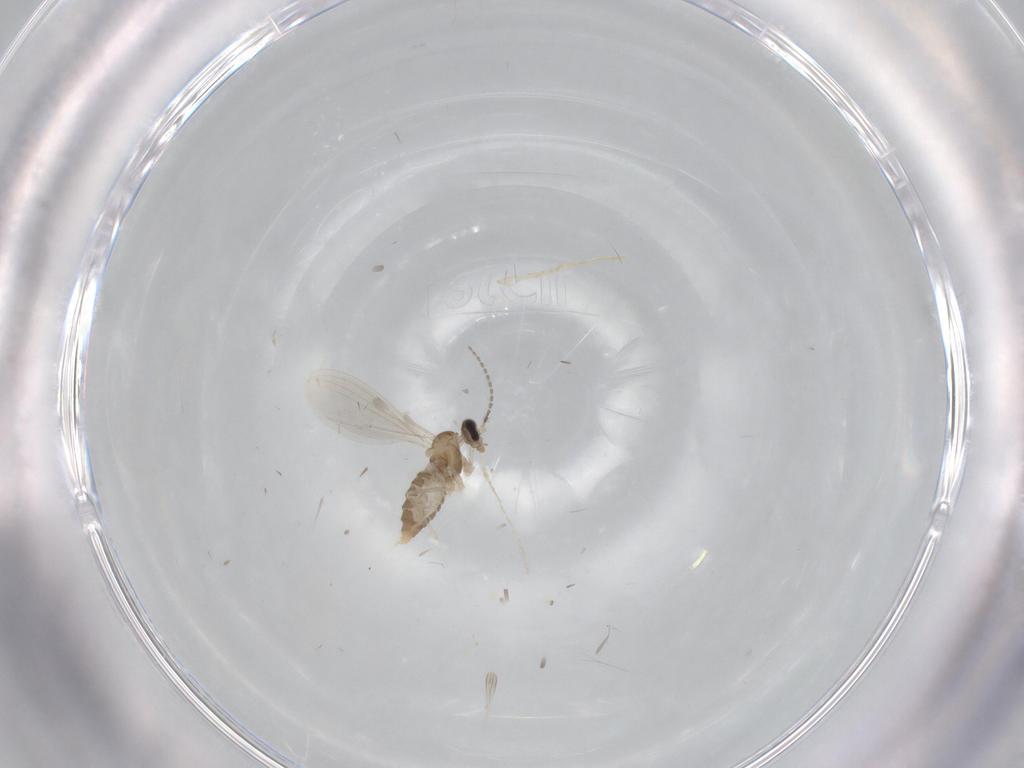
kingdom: Animalia
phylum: Arthropoda
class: Insecta
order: Diptera
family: Cecidomyiidae
